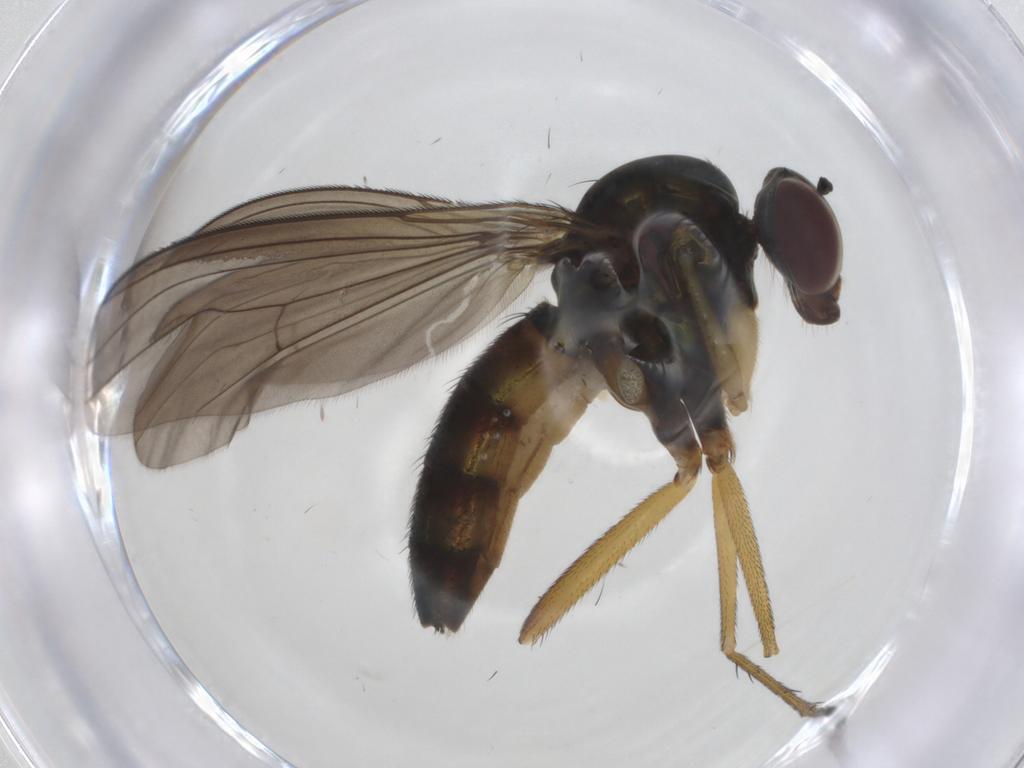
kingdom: Animalia
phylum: Arthropoda
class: Insecta
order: Diptera
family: Dolichopodidae
